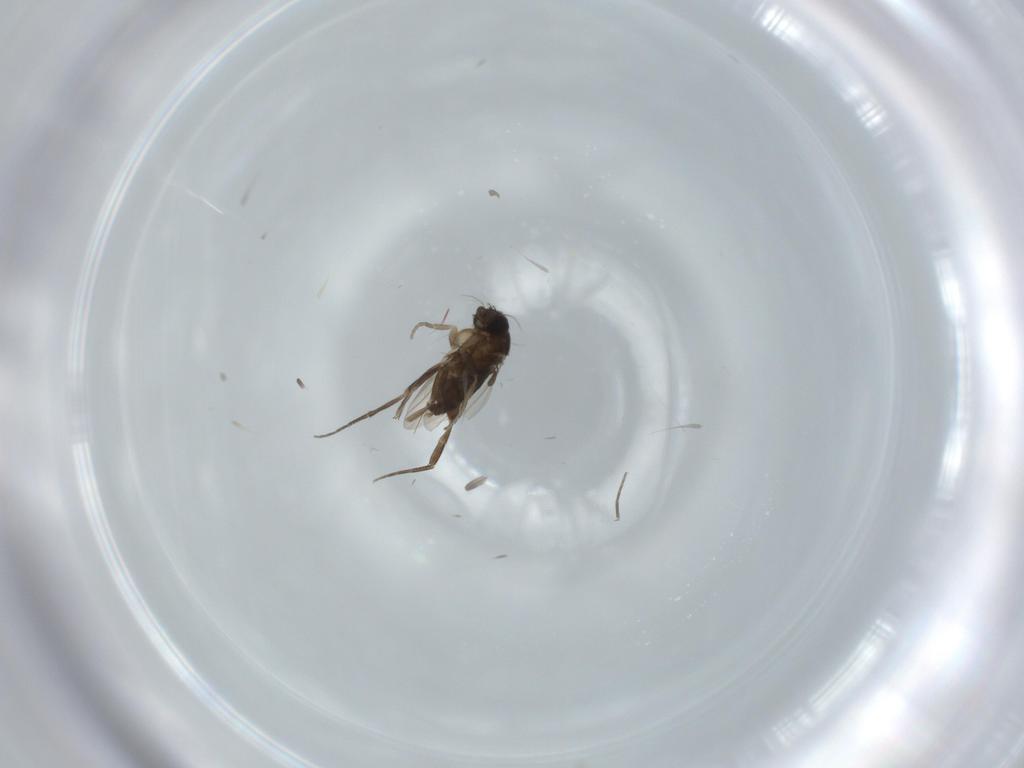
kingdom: Animalia
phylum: Arthropoda
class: Insecta
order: Diptera
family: Phoridae
